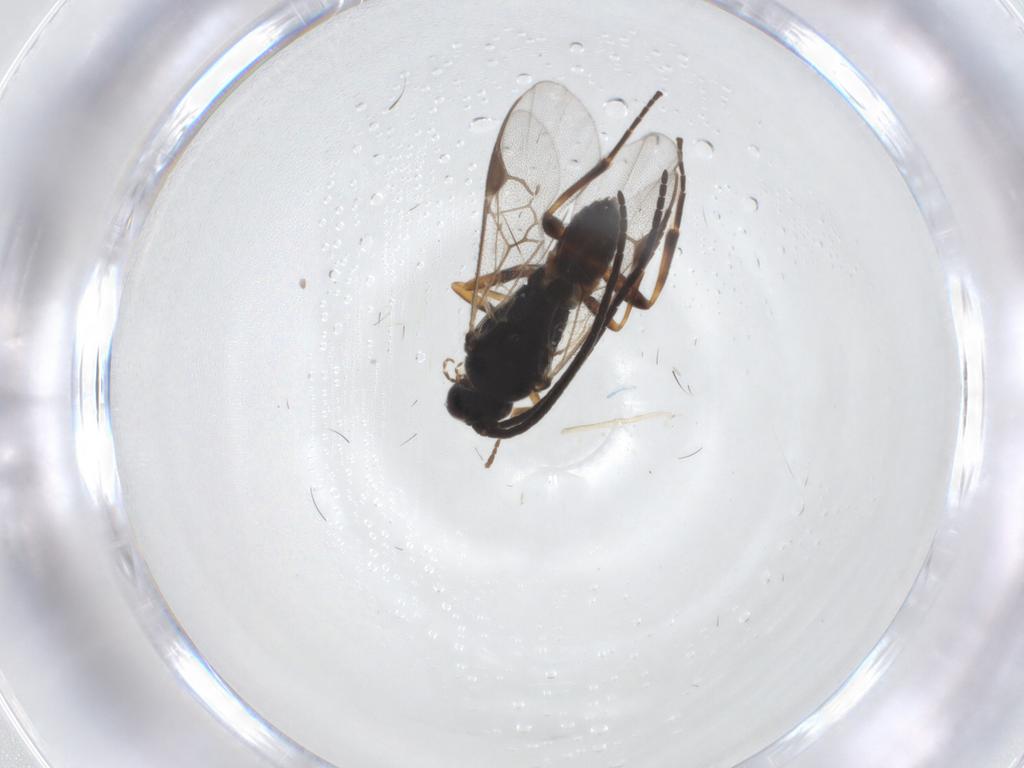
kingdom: Animalia
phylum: Arthropoda
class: Insecta
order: Hymenoptera
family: Braconidae
